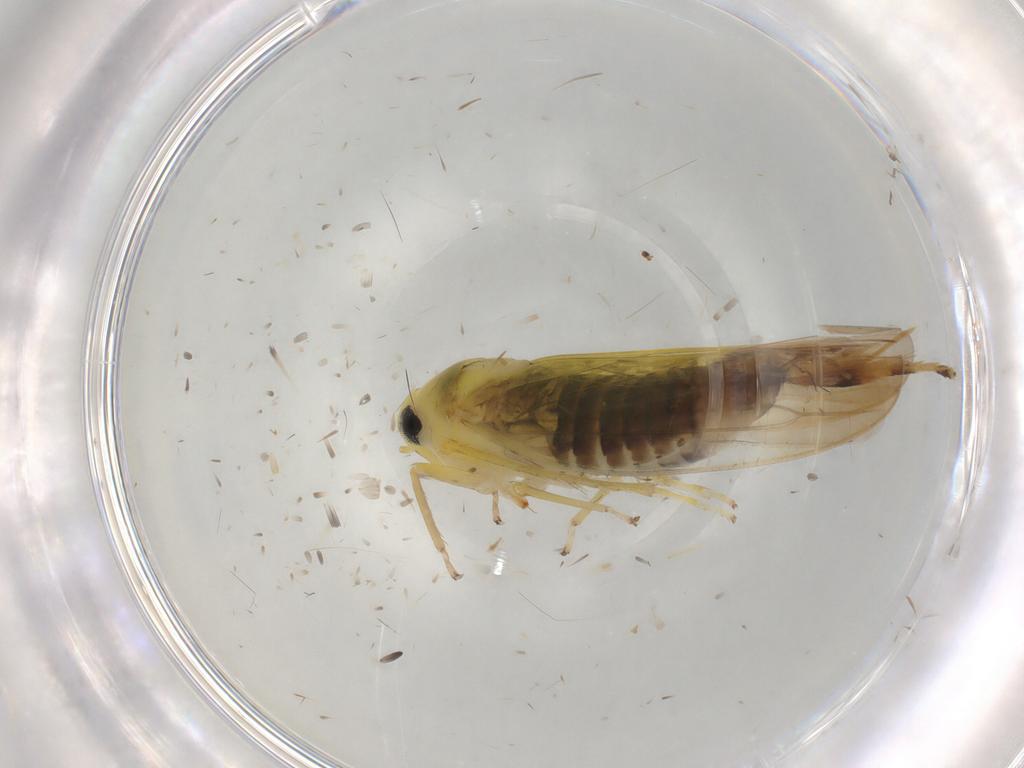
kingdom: Animalia
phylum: Arthropoda
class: Insecta
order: Hemiptera
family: Cicadellidae
